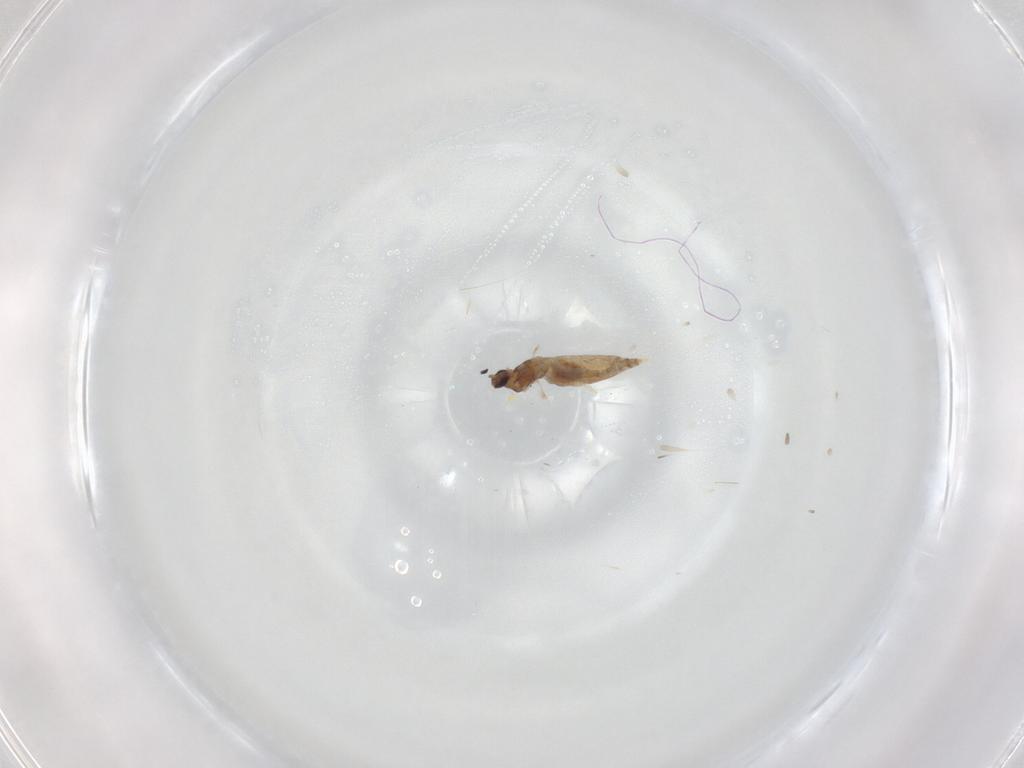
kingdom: Animalia
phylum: Arthropoda
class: Insecta
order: Diptera
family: Cecidomyiidae
